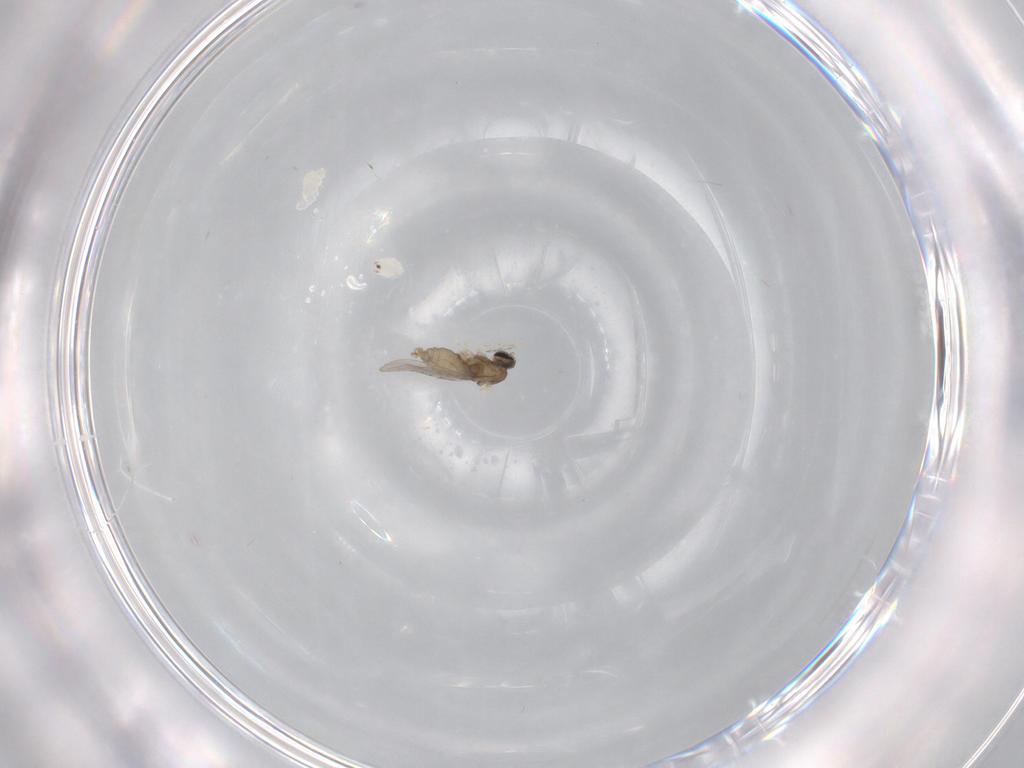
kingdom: Animalia
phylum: Arthropoda
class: Insecta
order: Diptera
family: Cecidomyiidae
